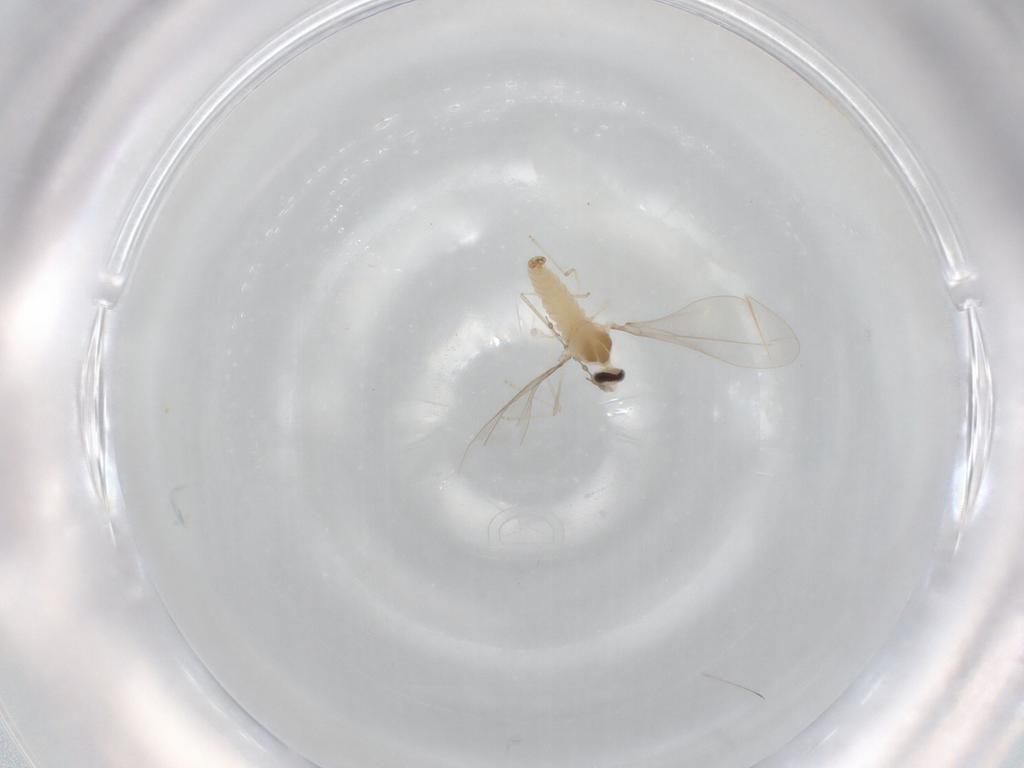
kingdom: Animalia
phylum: Arthropoda
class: Insecta
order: Diptera
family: Cecidomyiidae
